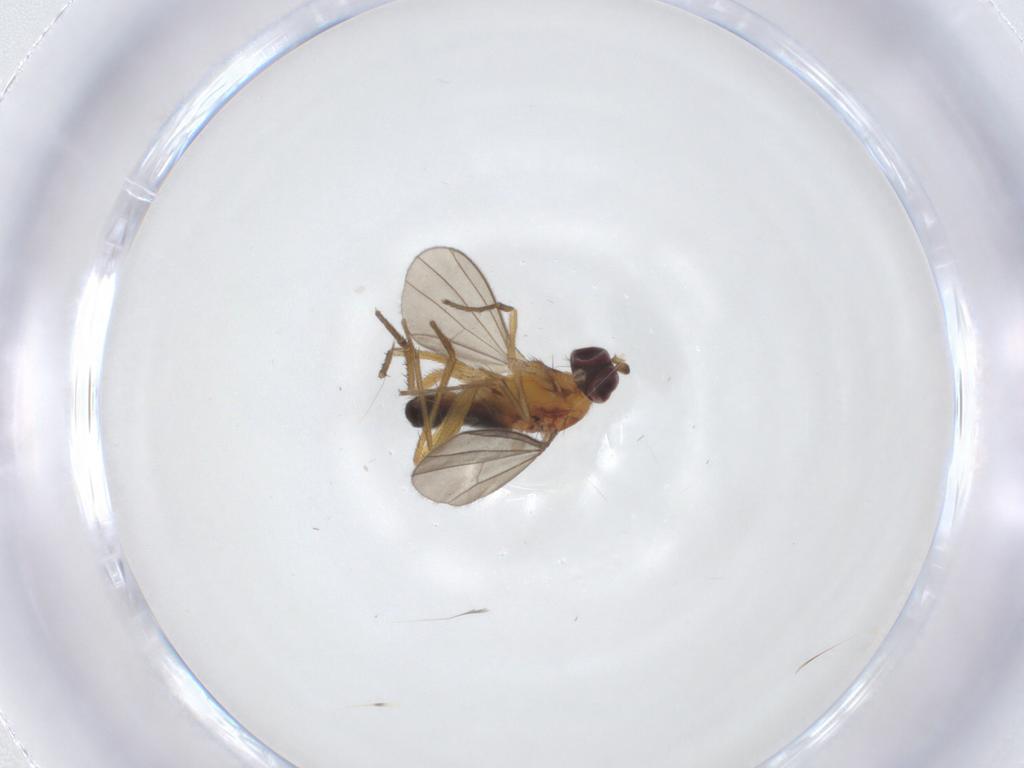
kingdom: Animalia
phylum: Arthropoda
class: Insecta
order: Diptera
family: Dolichopodidae
